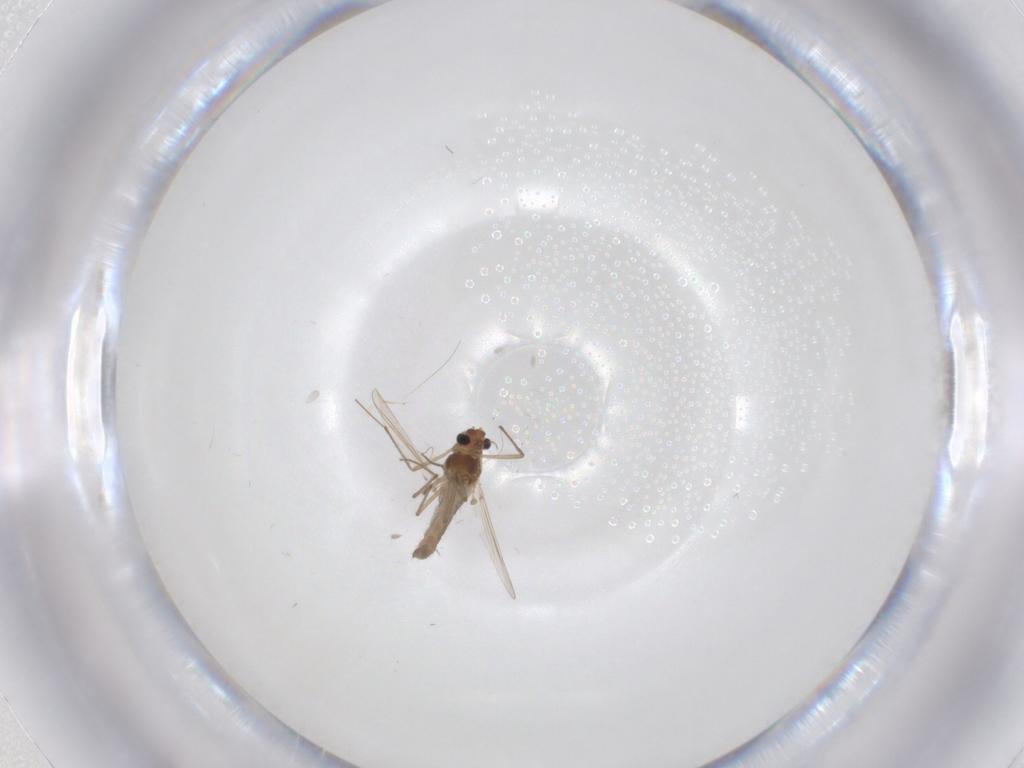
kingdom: Animalia
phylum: Arthropoda
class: Insecta
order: Diptera
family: Chironomidae
